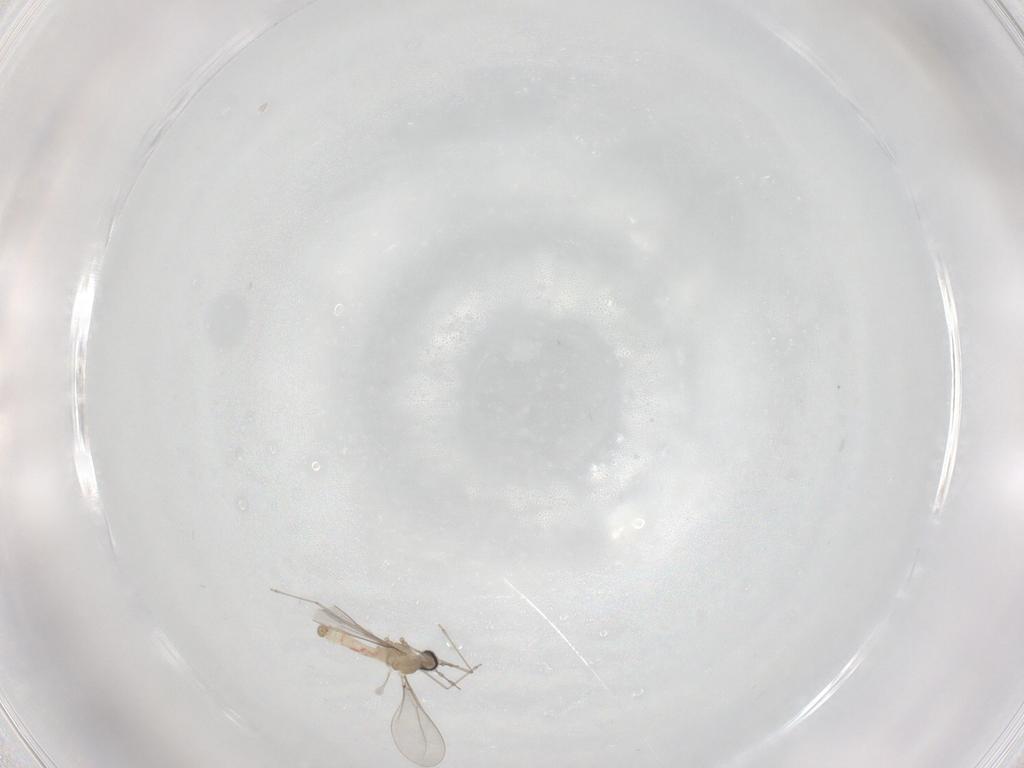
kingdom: Animalia
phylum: Arthropoda
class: Insecta
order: Diptera
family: Cecidomyiidae
